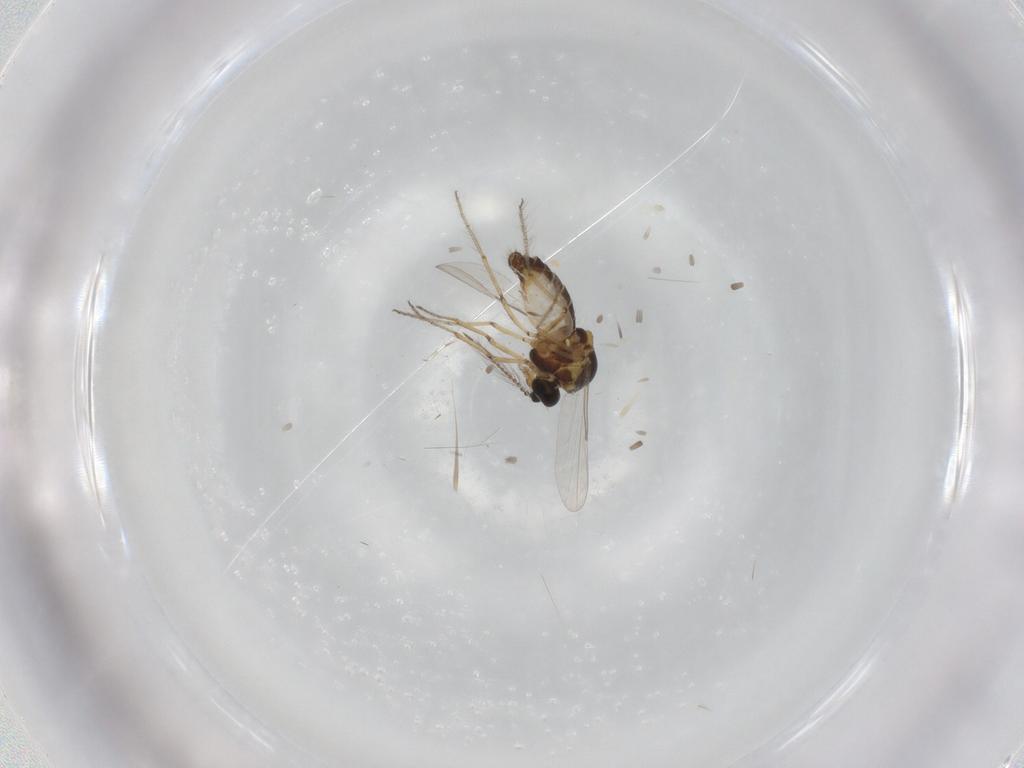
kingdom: Animalia
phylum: Arthropoda
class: Insecta
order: Diptera
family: Ceratopogonidae
